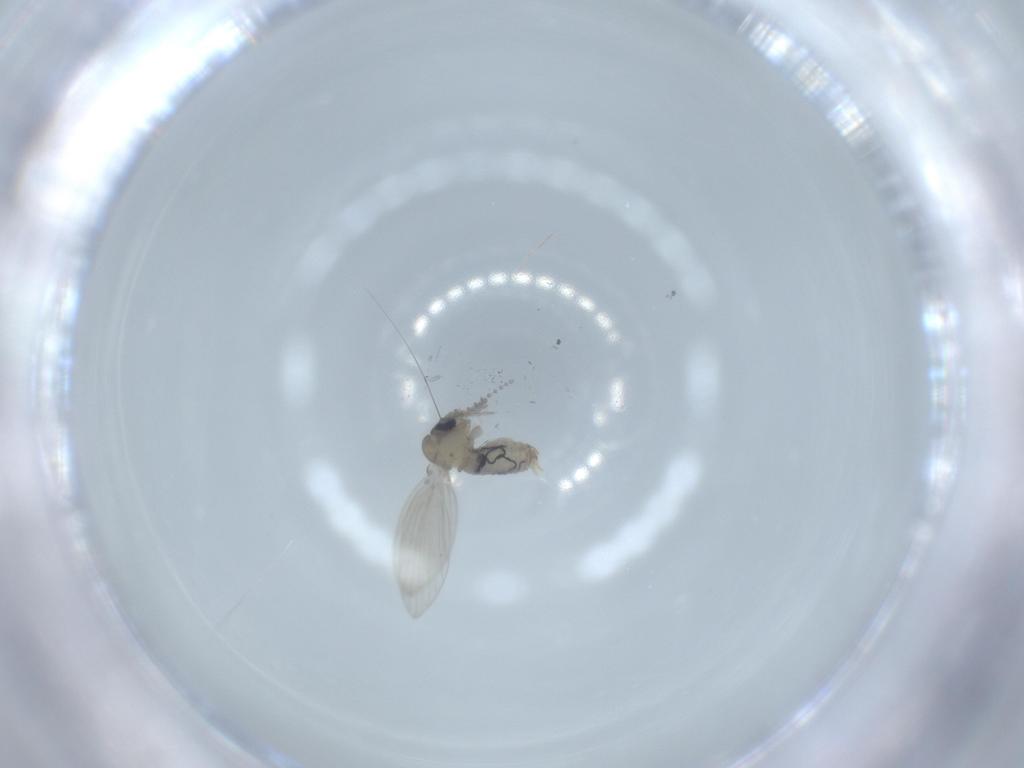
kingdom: Animalia
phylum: Arthropoda
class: Insecta
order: Diptera
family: Psychodidae
